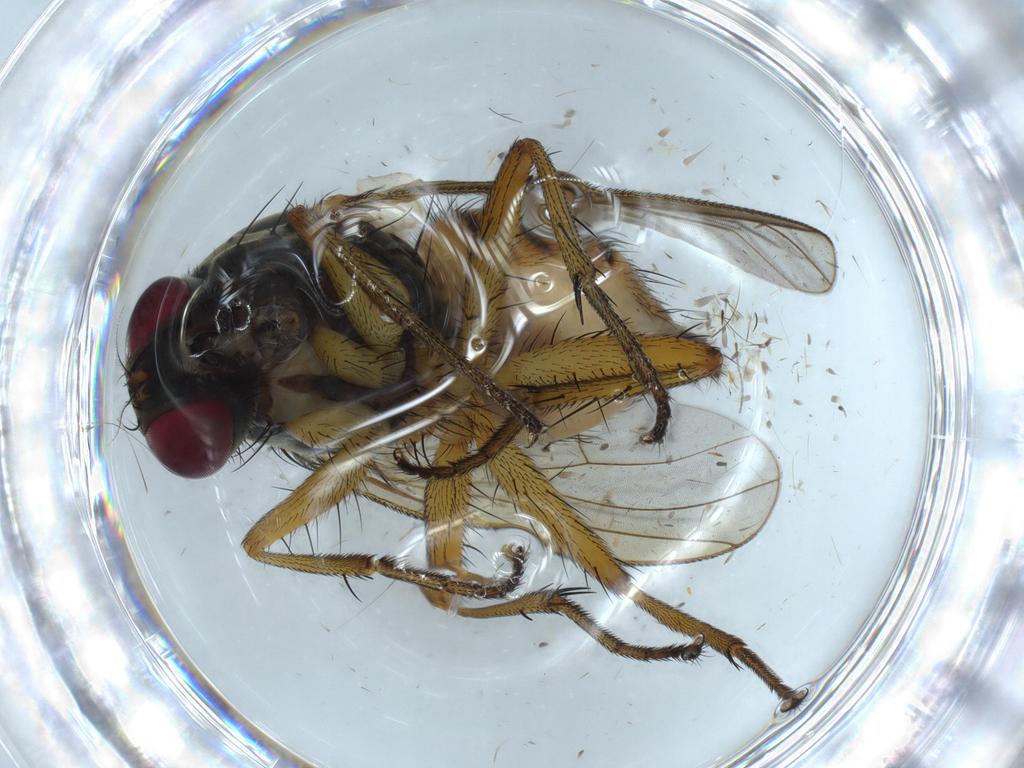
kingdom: Animalia
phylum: Arthropoda
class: Insecta
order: Diptera
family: Muscidae
